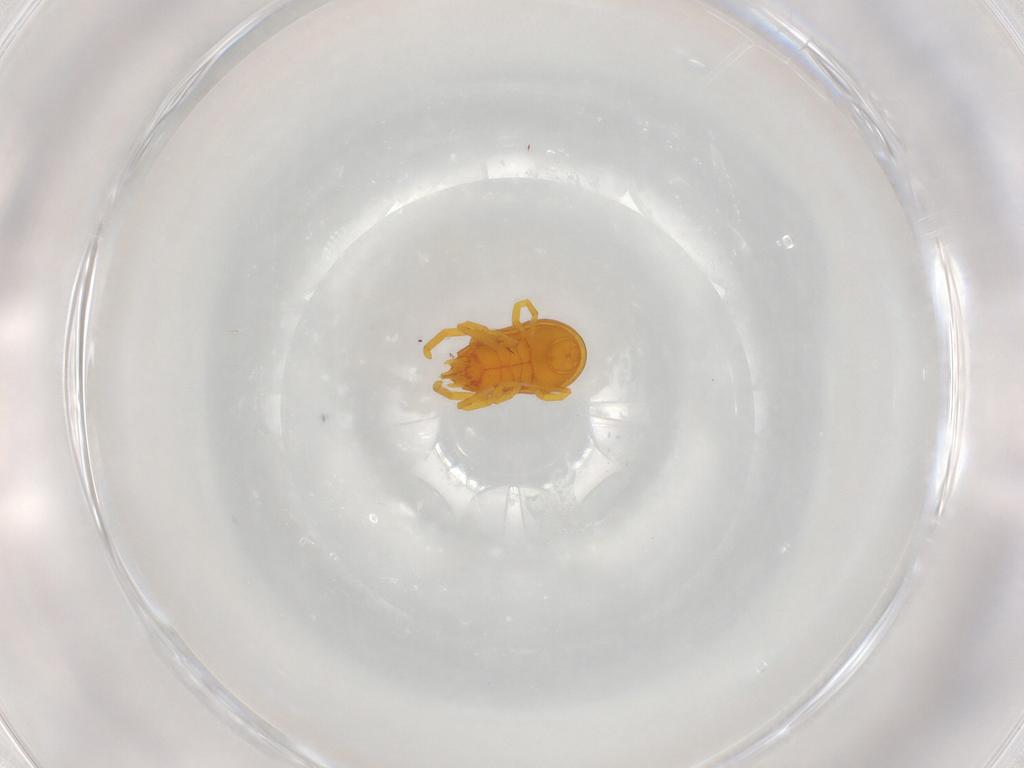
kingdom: Animalia
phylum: Arthropoda
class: Arachnida
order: Trombidiformes
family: Labidostommidae
